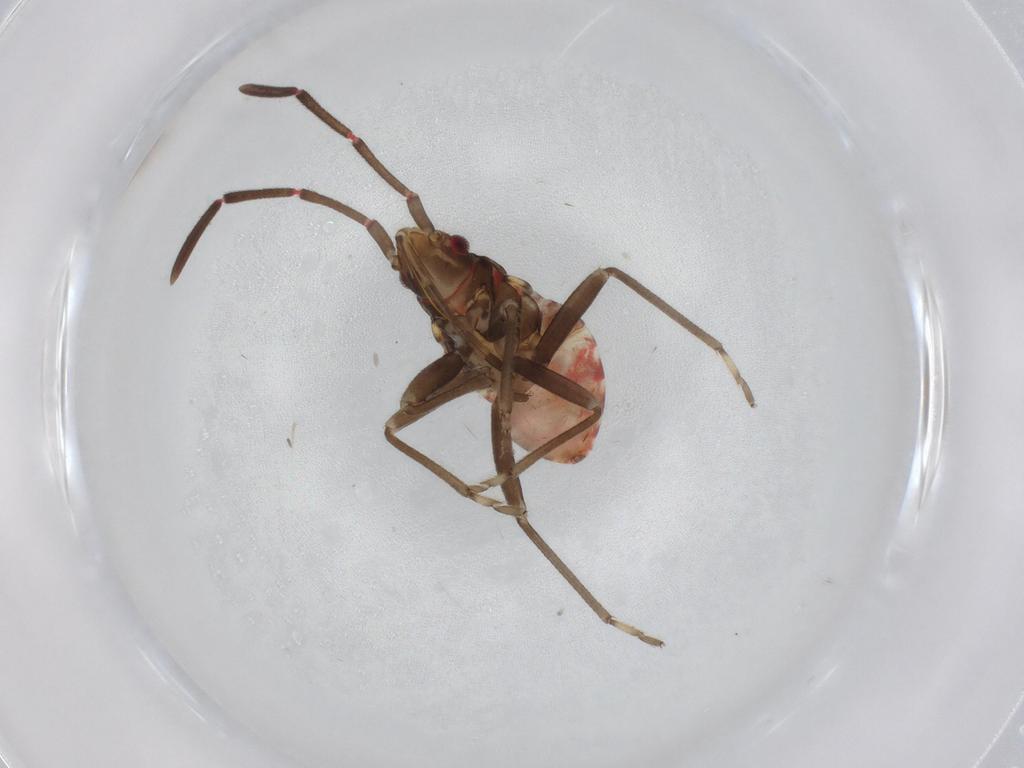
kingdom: Animalia
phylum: Arthropoda
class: Insecta
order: Hemiptera
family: Rhyparochromidae
